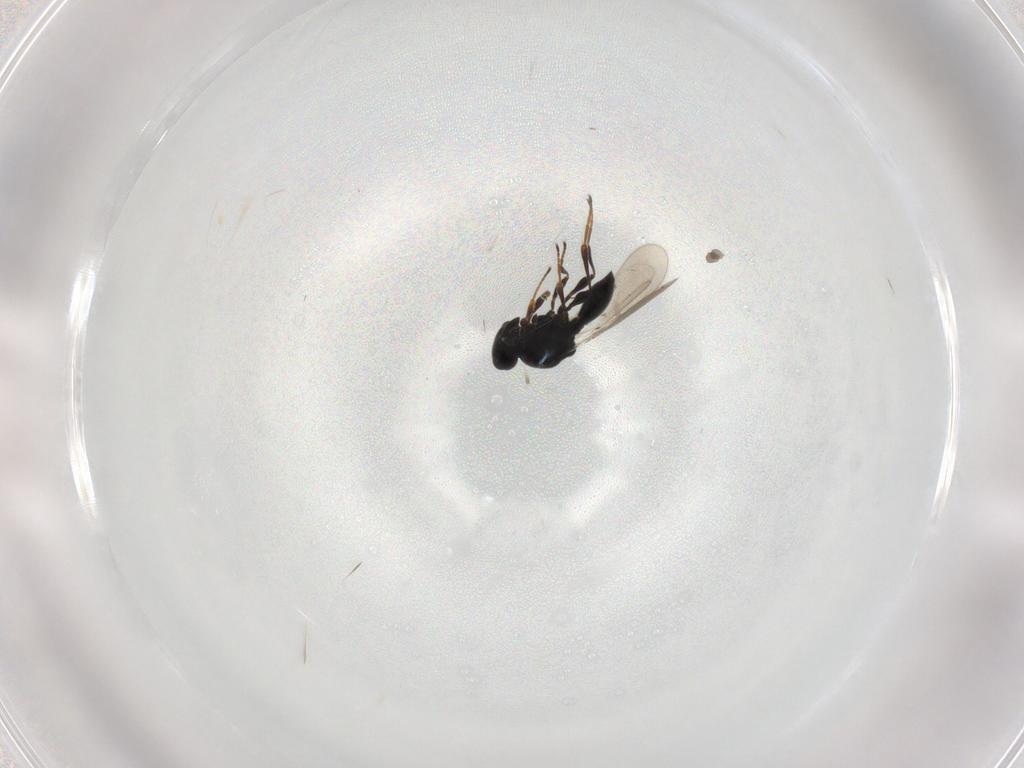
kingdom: Animalia
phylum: Arthropoda
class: Insecta
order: Hymenoptera
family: Platygastridae
